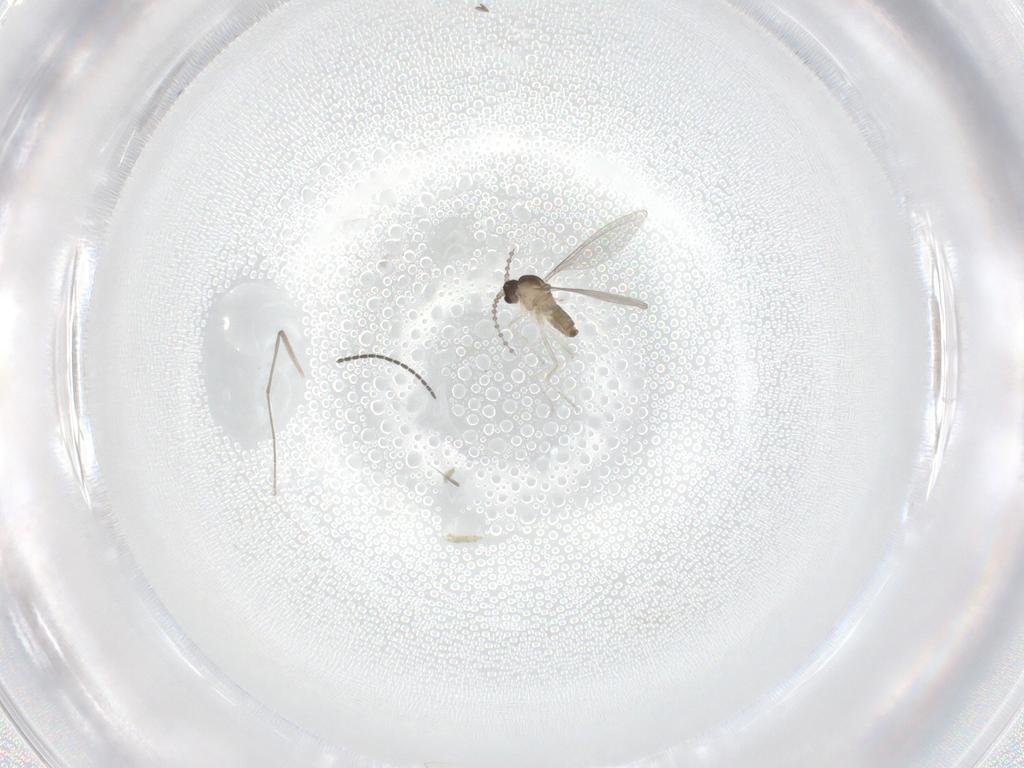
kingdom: Animalia
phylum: Arthropoda
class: Insecta
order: Diptera
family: Cecidomyiidae
